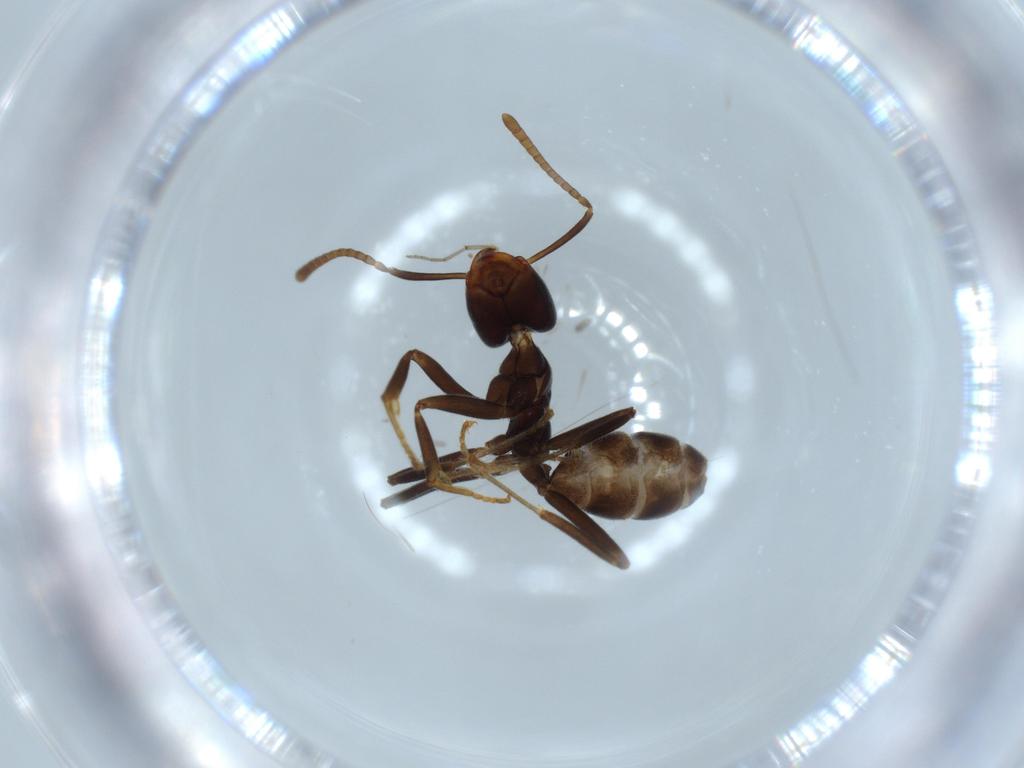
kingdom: Animalia
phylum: Arthropoda
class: Insecta
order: Hymenoptera
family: Formicidae
